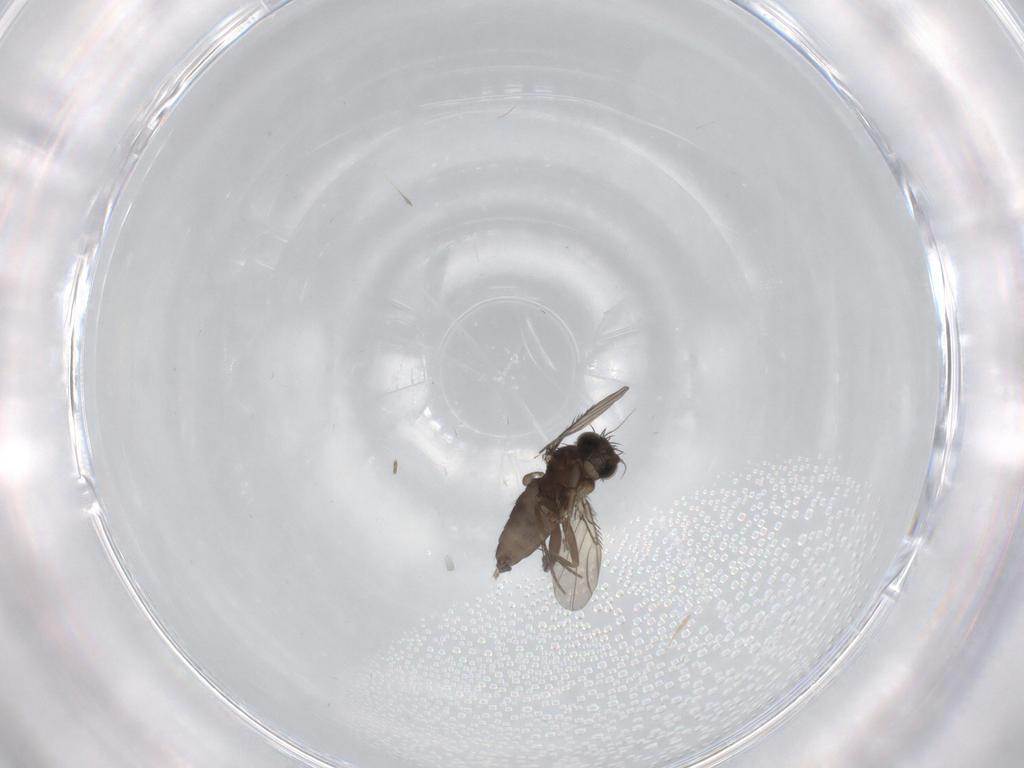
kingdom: Animalia
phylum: Arthropoda
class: Insecta
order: Diptera
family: Phoridae
